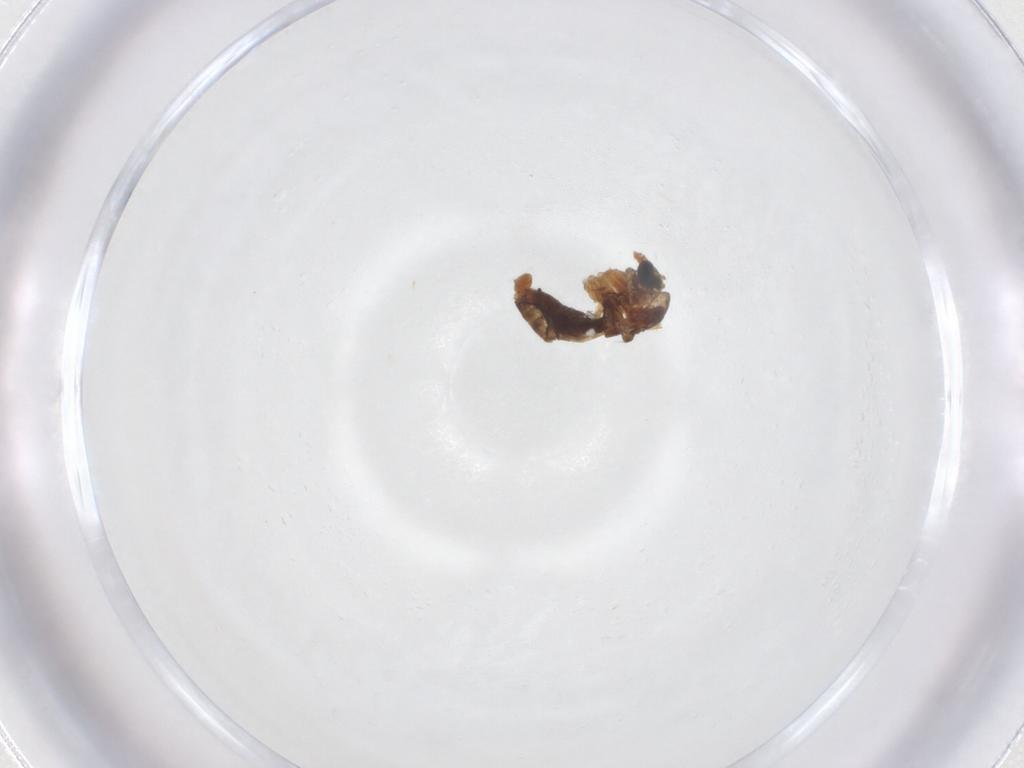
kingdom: Animalia
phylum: Arthropoda
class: Insecta
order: Diptera
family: Chironomidae
